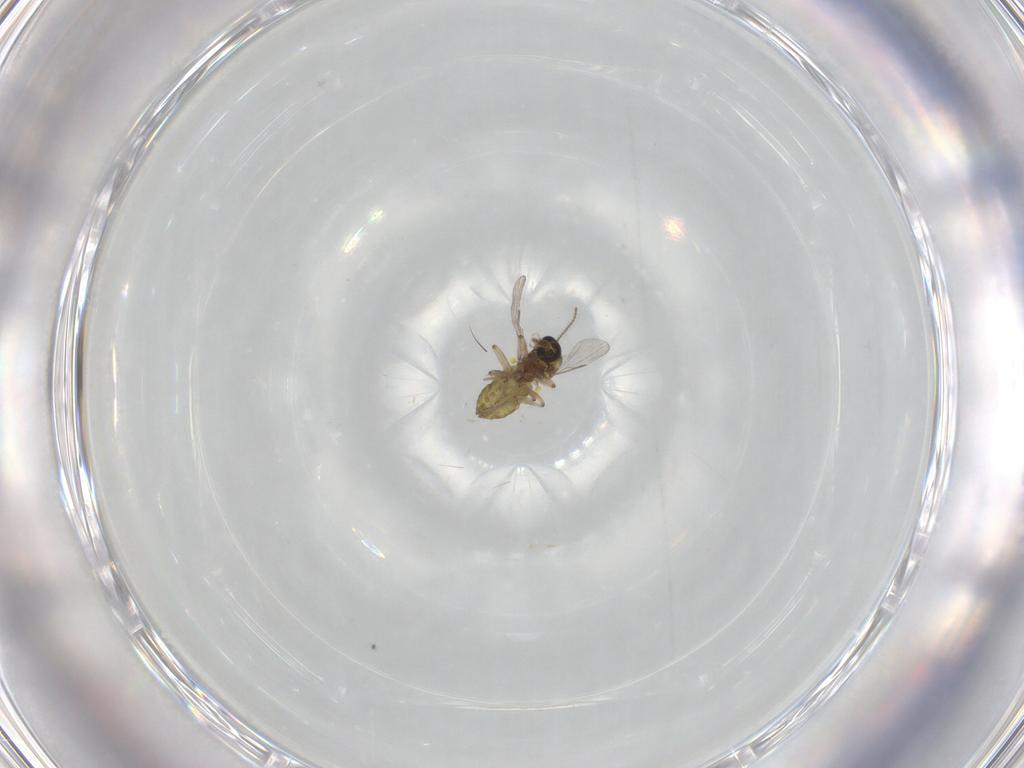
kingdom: Animalia
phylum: Arthropoda
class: Insecta
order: Diptera
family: Ceratopogonidae
